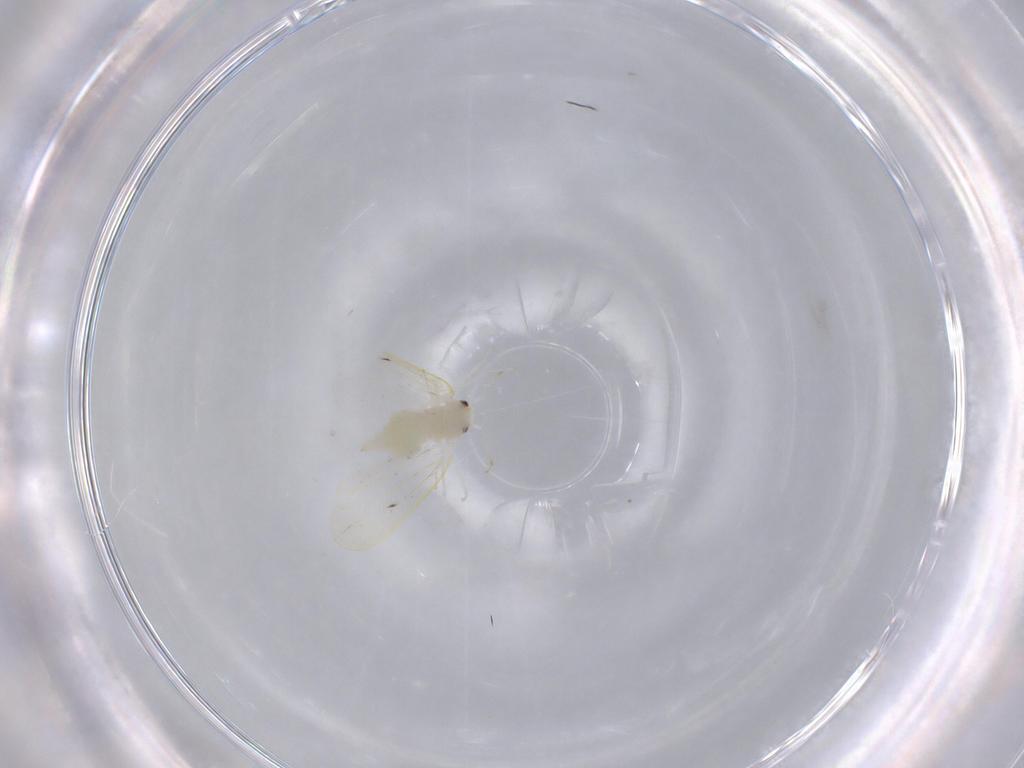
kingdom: Animalia
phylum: Arthropoda
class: Insecta
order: Hemiptera
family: Aleyrodidae
